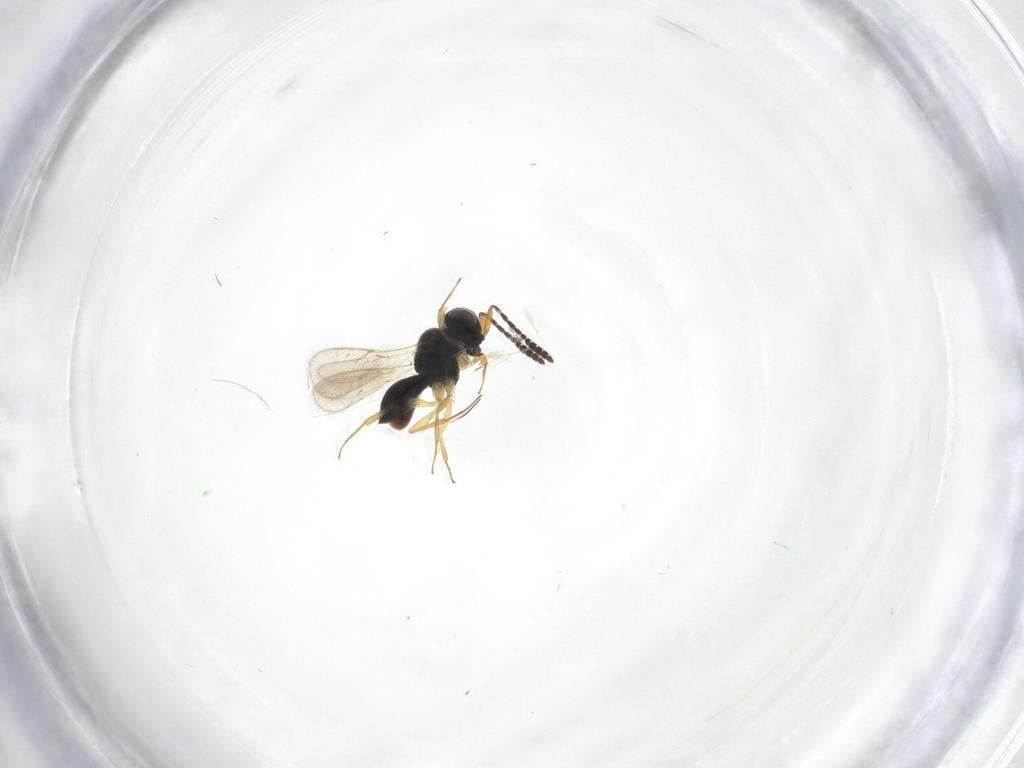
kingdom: Animalia
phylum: Arthropoda
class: Insecta
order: Hymenoptera
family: Scelionidae
